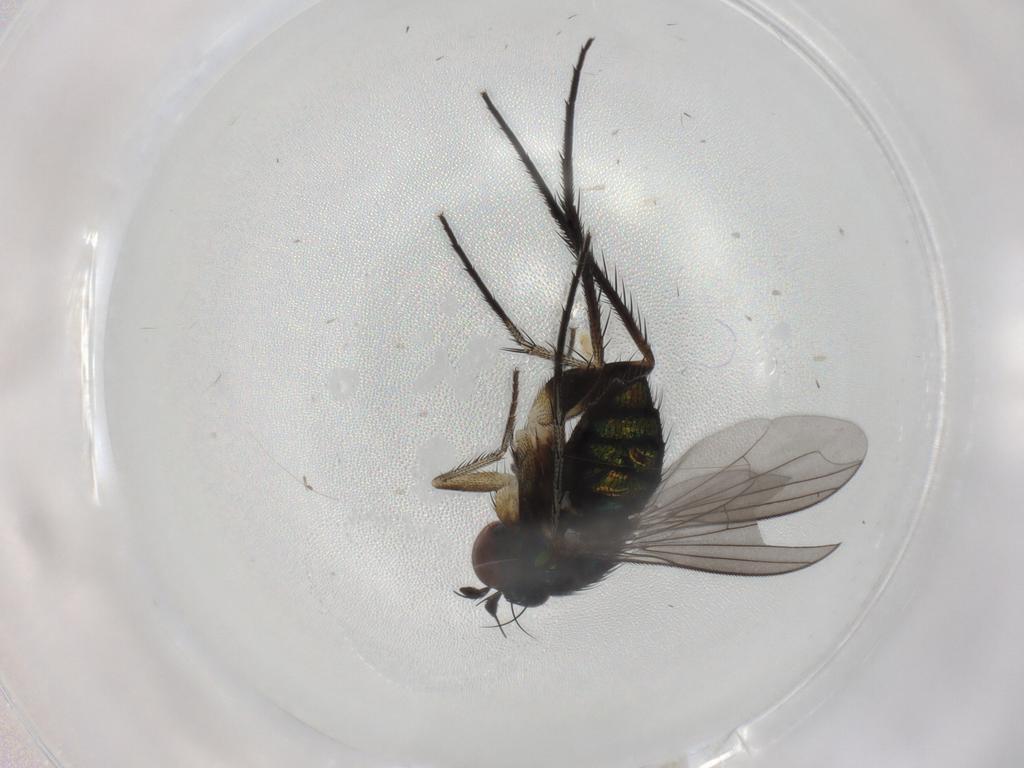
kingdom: Animalia
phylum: Arthropoda
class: Insecta
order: Diptera
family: Dolichopodidae
